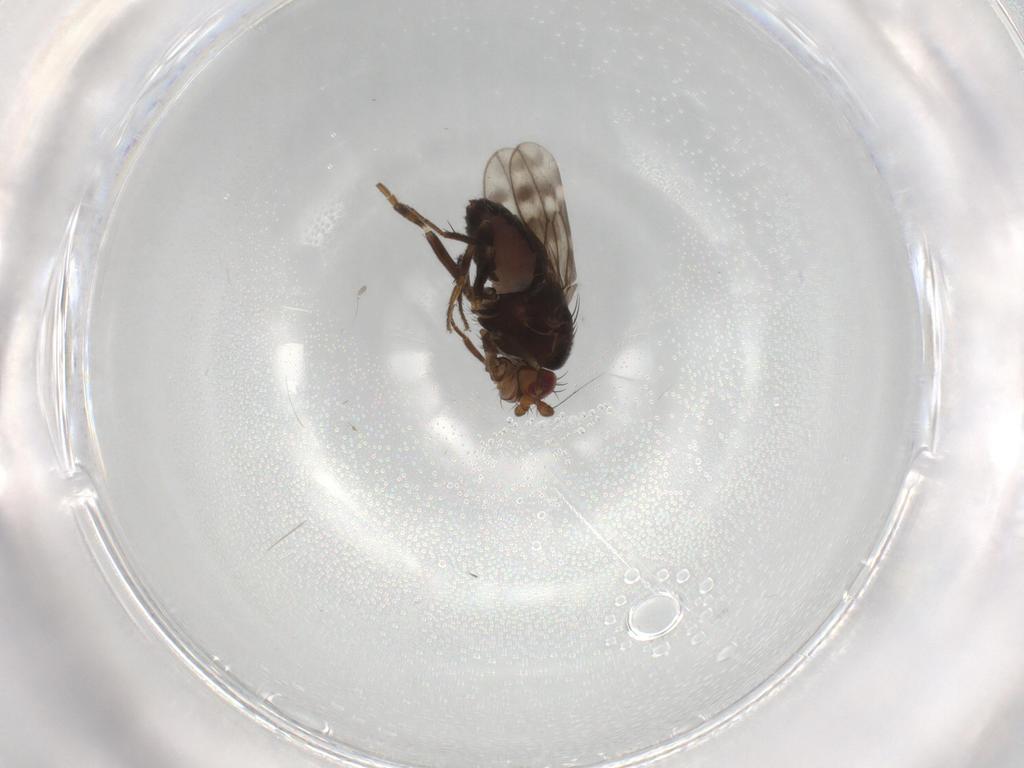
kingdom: Animalia
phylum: Arthropoda
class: Insecta
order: Diptera
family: Sphaeroceridae
